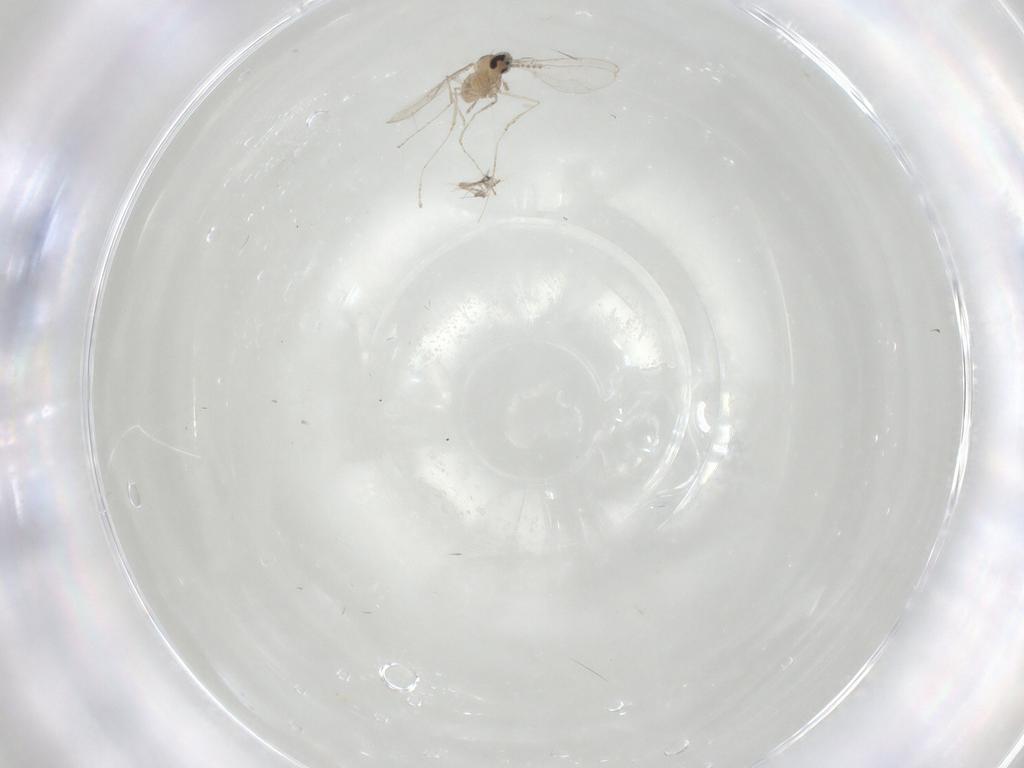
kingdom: Animalia
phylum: Arthropoda
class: Insecta
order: Diptera
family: Cecidomyiidae
